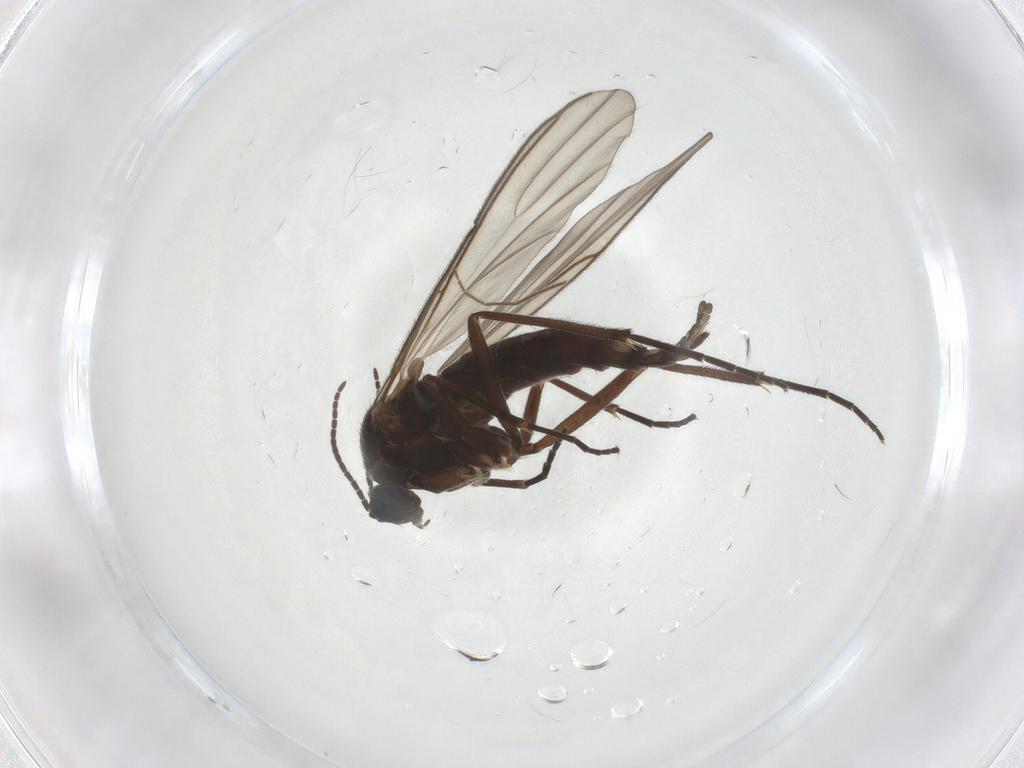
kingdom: Animalia
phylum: Arthropoda
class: Insecta
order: Diptera
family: Sciaridae
